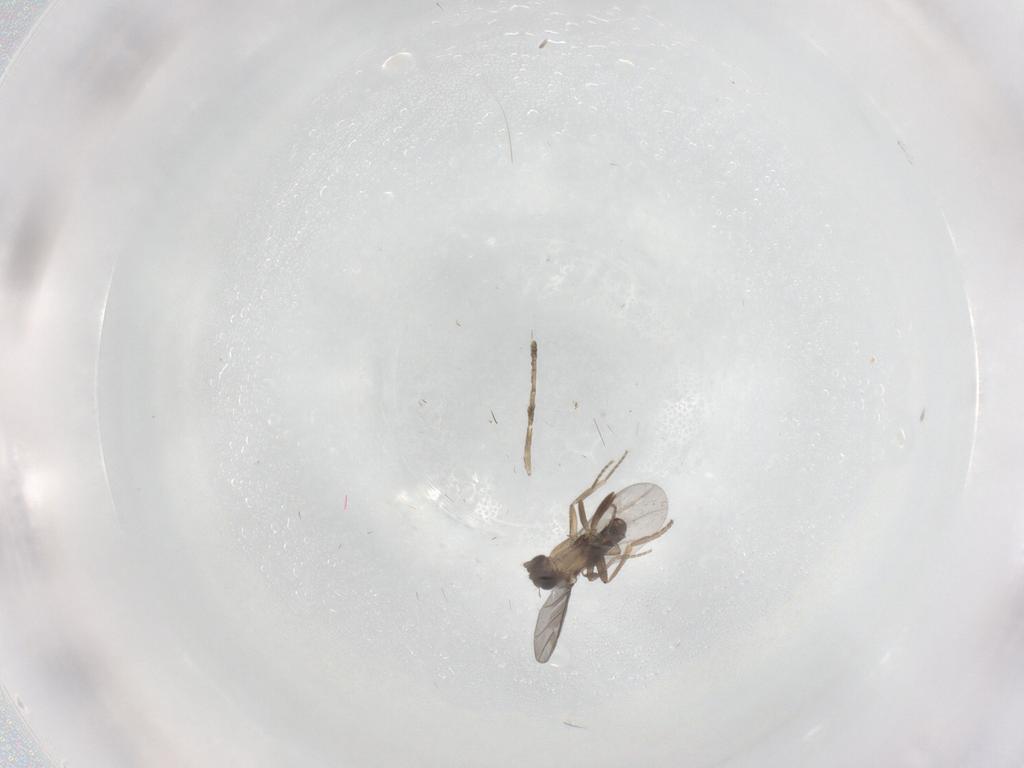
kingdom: Animalia
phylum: Arthropoda
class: Insecta
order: Diptera
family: Psychodidae
